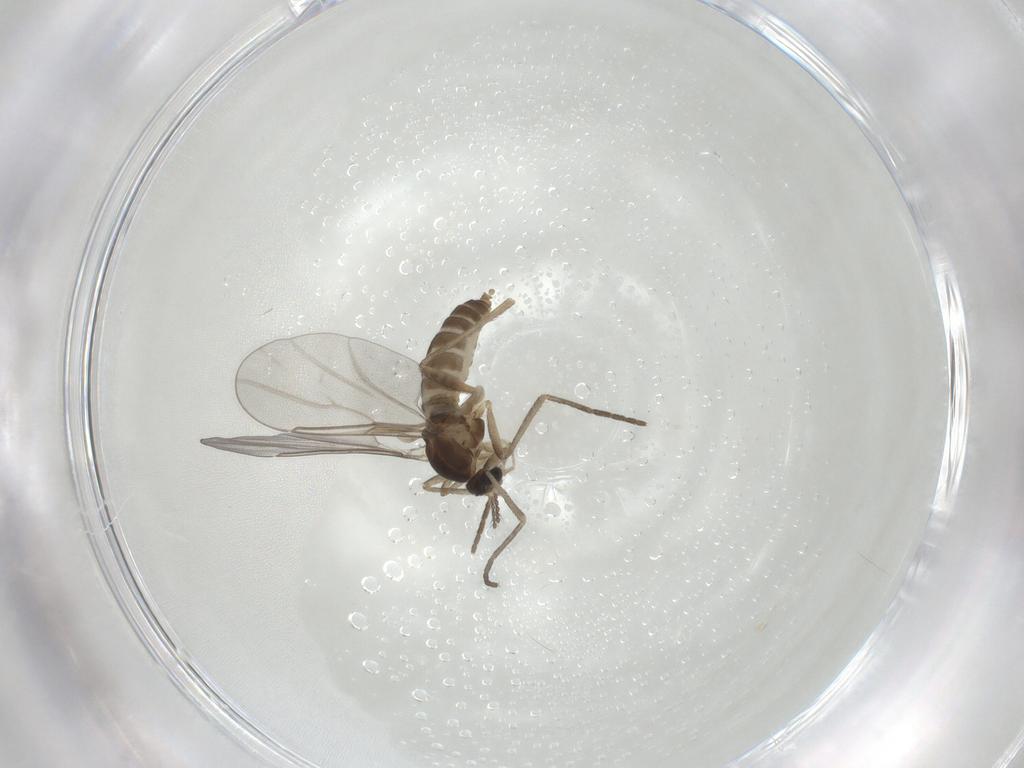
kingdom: Animalia
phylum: Arthropoda
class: Insecta
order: Diptera
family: Cecidomyiidae
